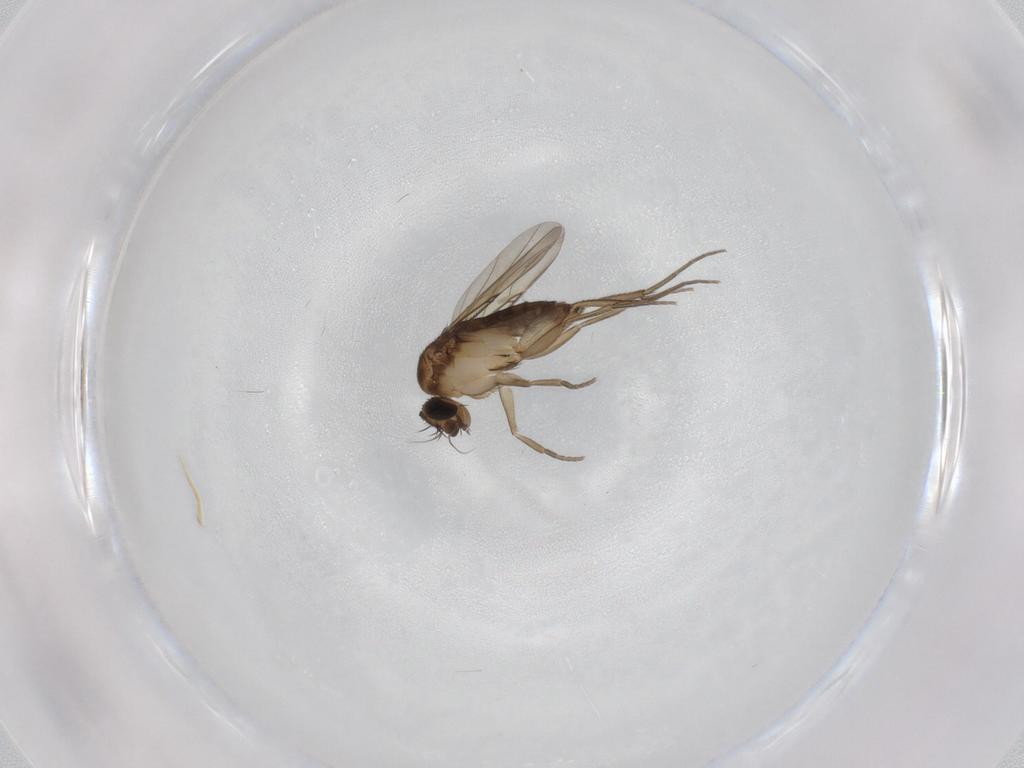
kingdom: Animalia
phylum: Arthropoda
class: Insecta
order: Diptera
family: Phoridae
